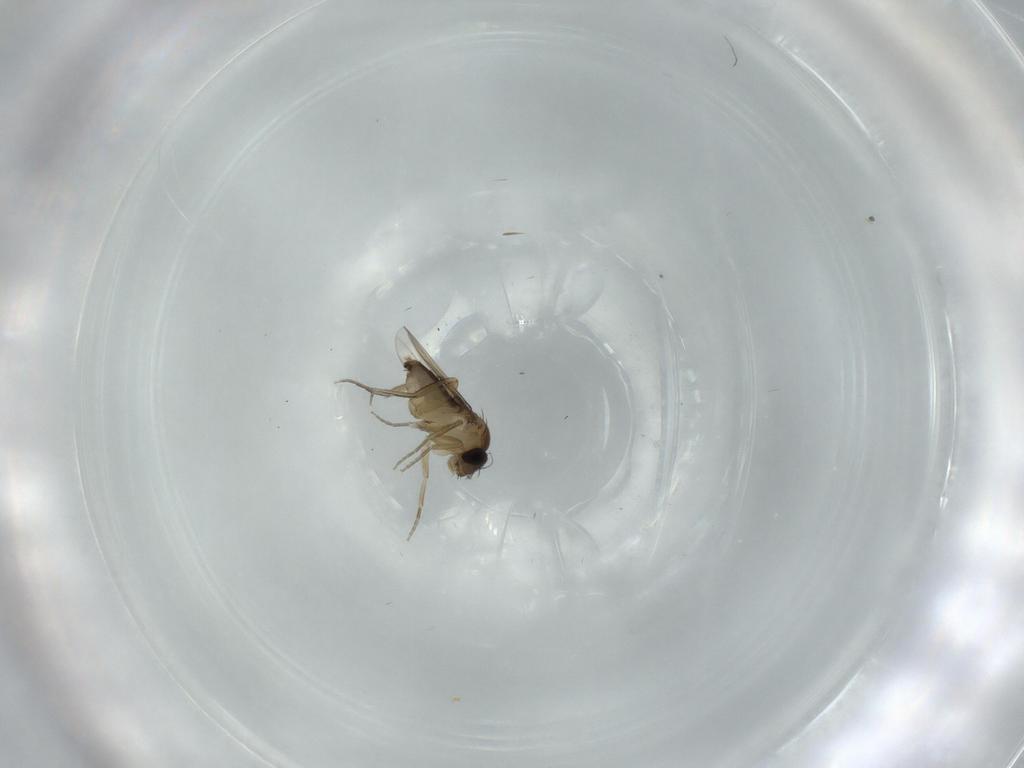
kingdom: Animalia
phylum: Arthropoda
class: Insecta
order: Diptera
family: Phoridae
